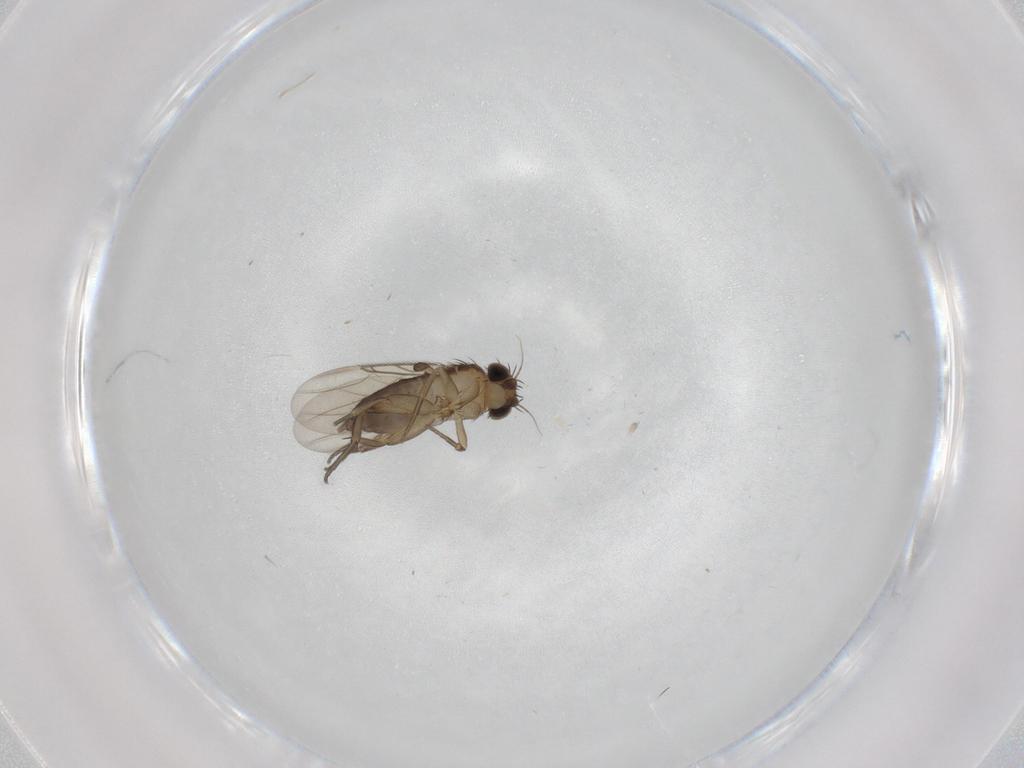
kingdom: Animalia
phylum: Arthropoda
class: Insecta
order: Diptera
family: Phoridae
